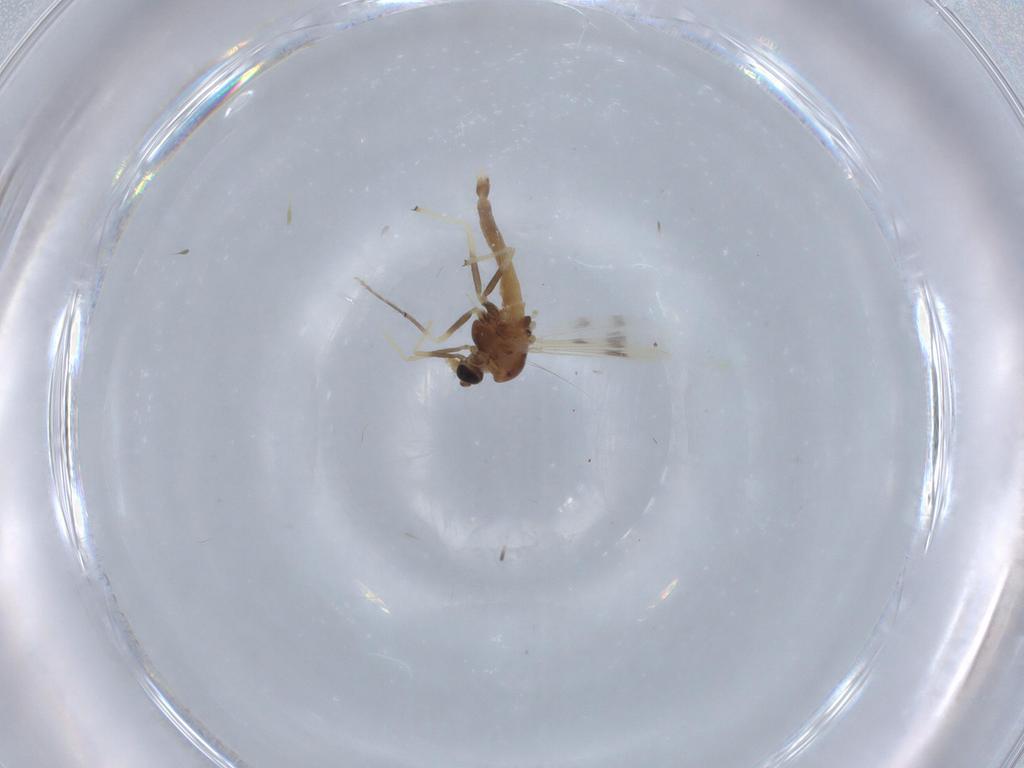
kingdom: Animalia
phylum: Arthropoda
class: Insecta
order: Diptera
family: Chironomidae
